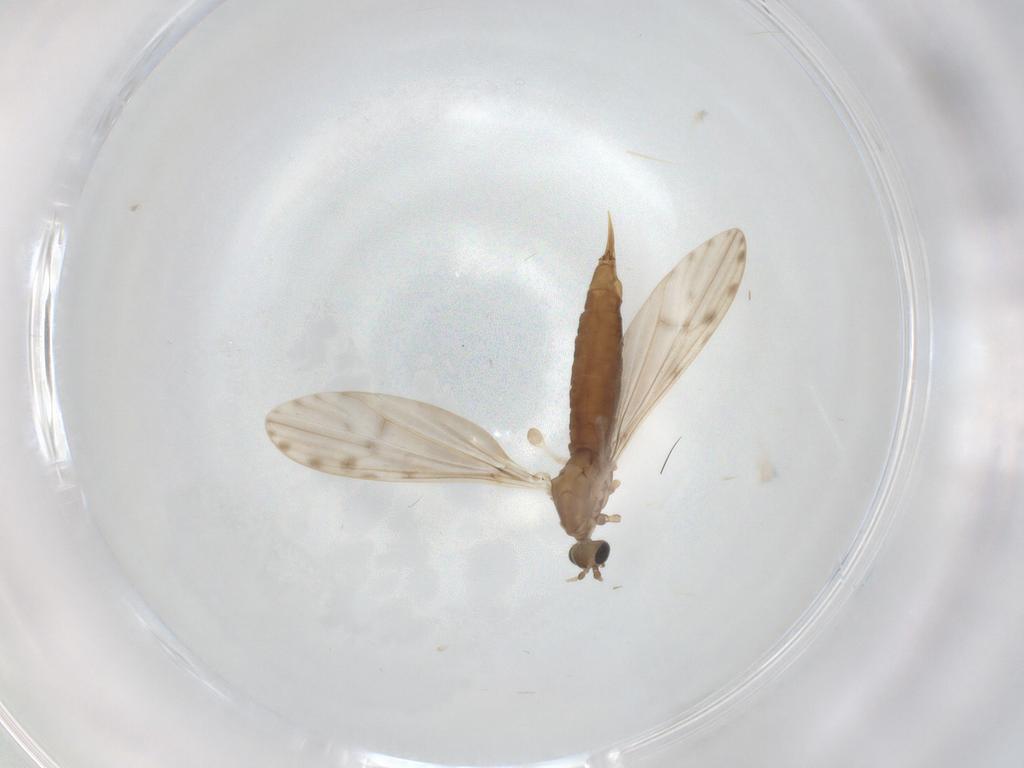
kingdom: Animalia
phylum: Arthropoda
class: Insecta
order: Diptera
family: Limoniidae
